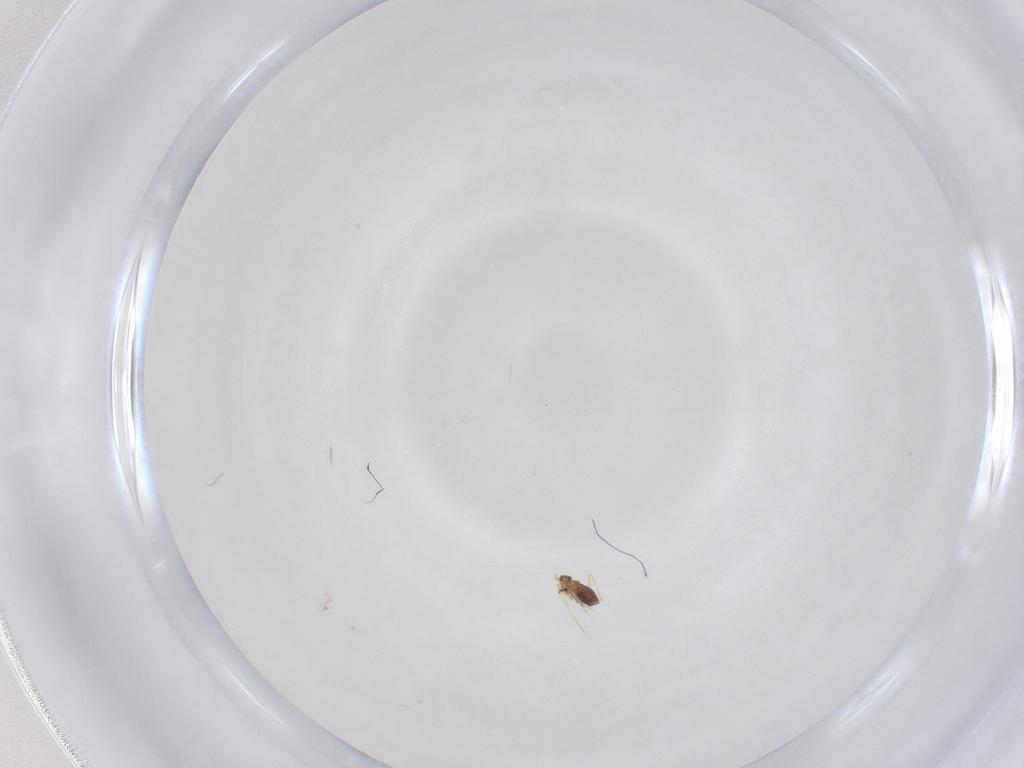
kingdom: Animalia
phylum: Arthropoda
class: Insecta
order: Hymenoptera
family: Mymaridae
